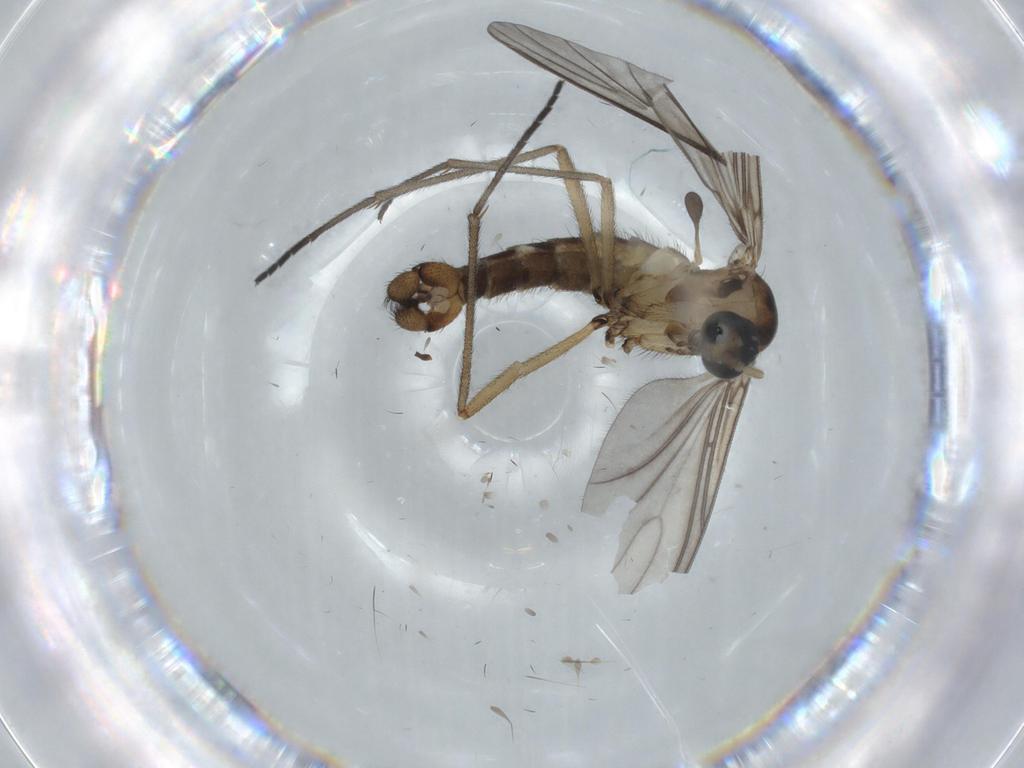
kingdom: Animalia
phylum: Arthropoda
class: Insecta
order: Diptera
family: Sciaridae
